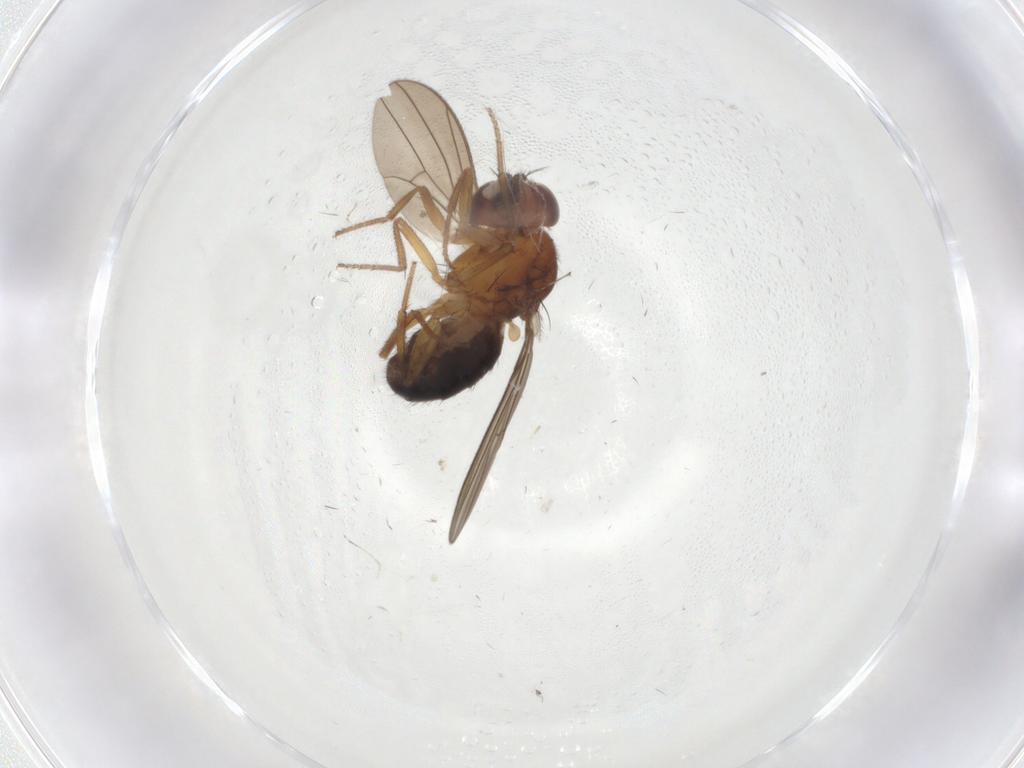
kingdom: Animalia
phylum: Arthropoda
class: Insecta
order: Diptera
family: Drosophilidae
